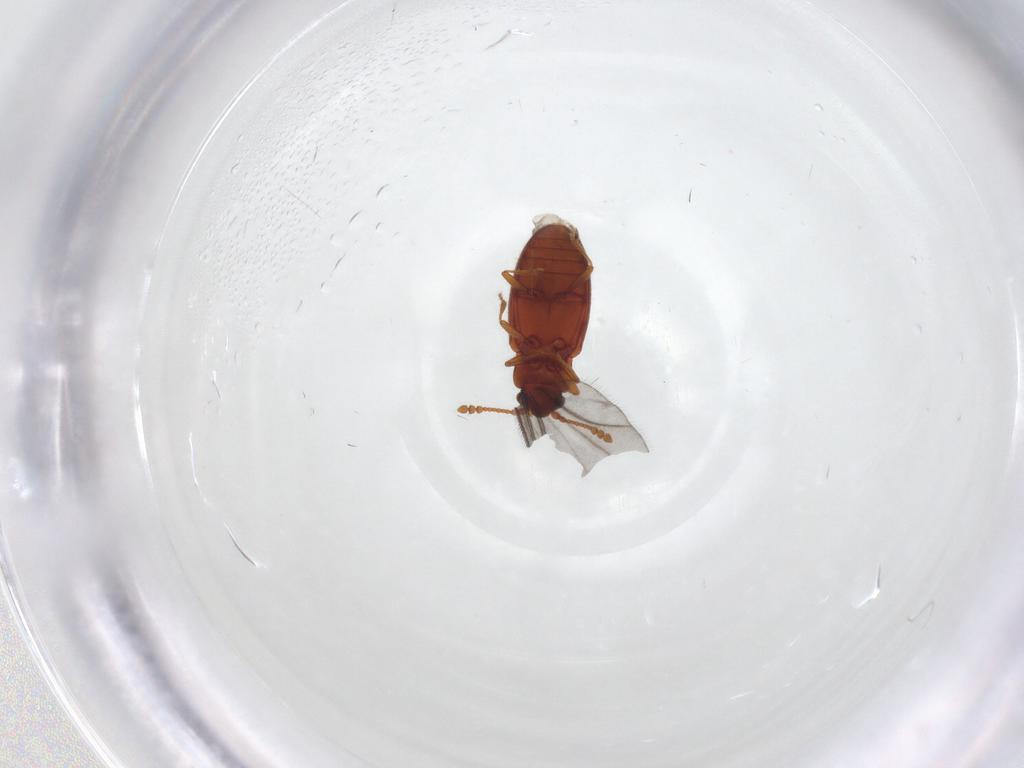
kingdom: Animalia
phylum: Arthropoda
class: Insecta
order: Coleoptera
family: Cryptophagidae
